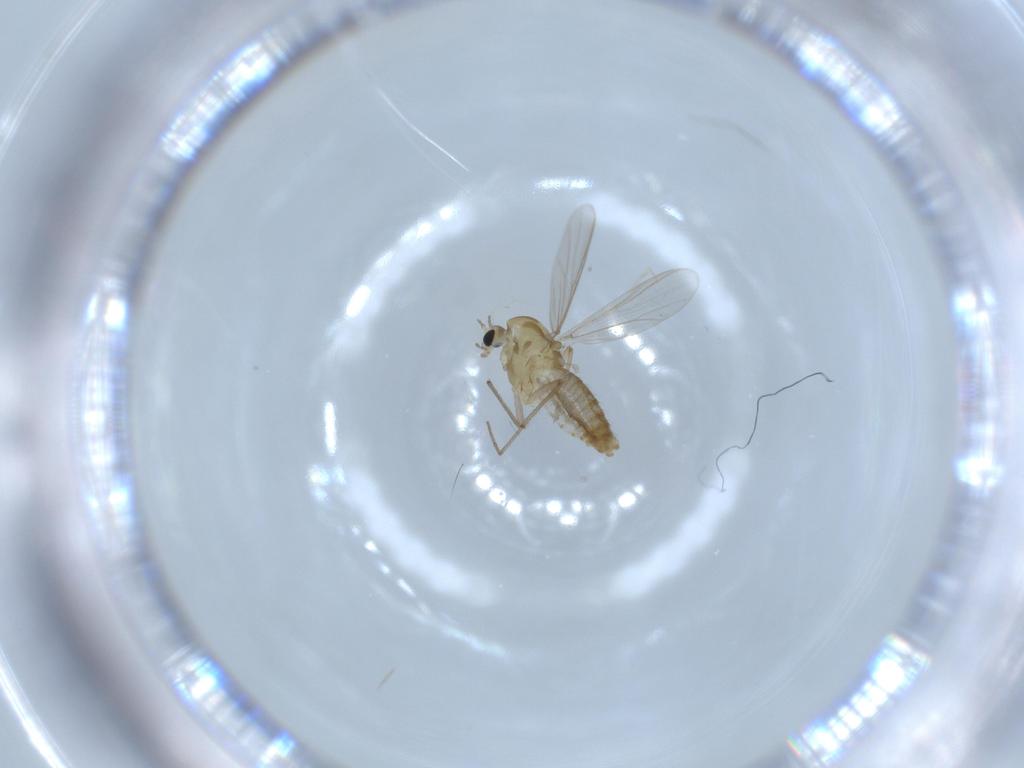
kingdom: Animalia
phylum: Arthropoda
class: Insecta
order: Diptera
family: Chironomidae
